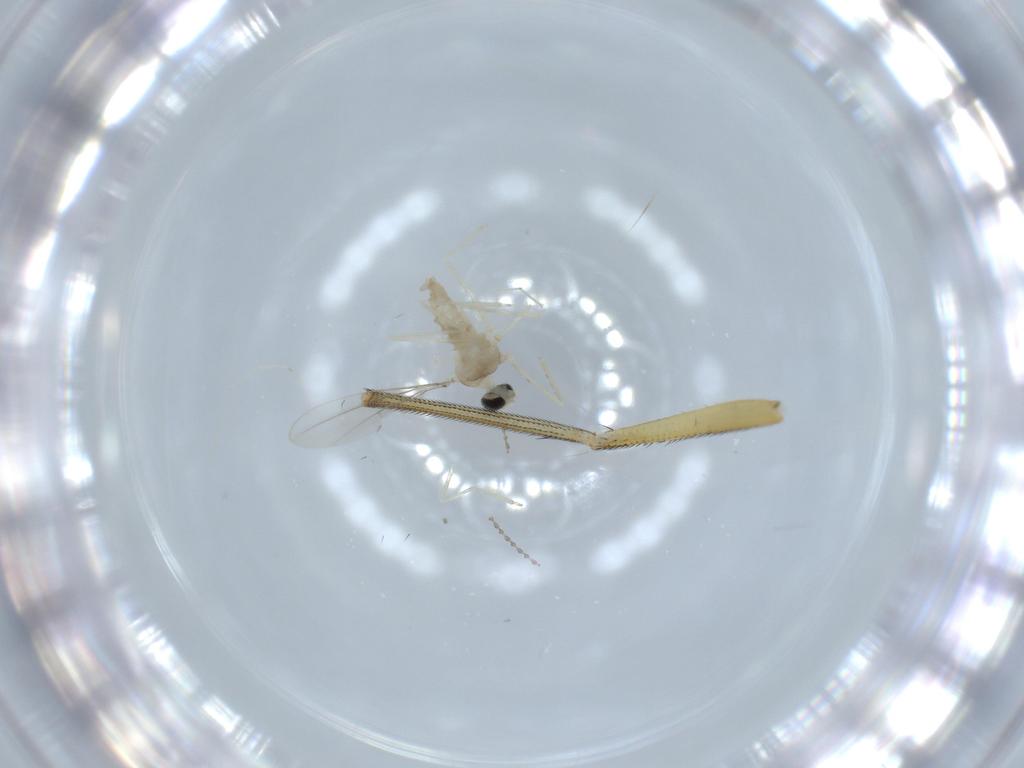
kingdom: Animalia
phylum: Arthropoda
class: Insecta
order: Diptera
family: Cecidomyiidae
